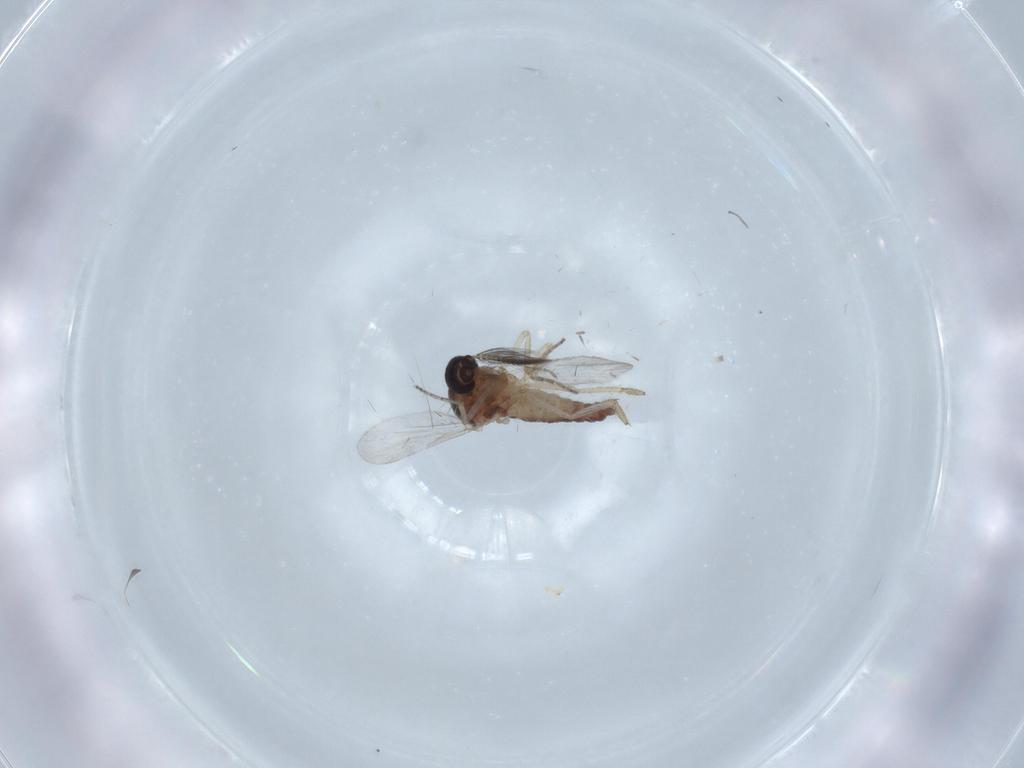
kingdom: Animalia
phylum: Arthropoda
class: Insecta
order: Diptera
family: Ceratopogonidae
